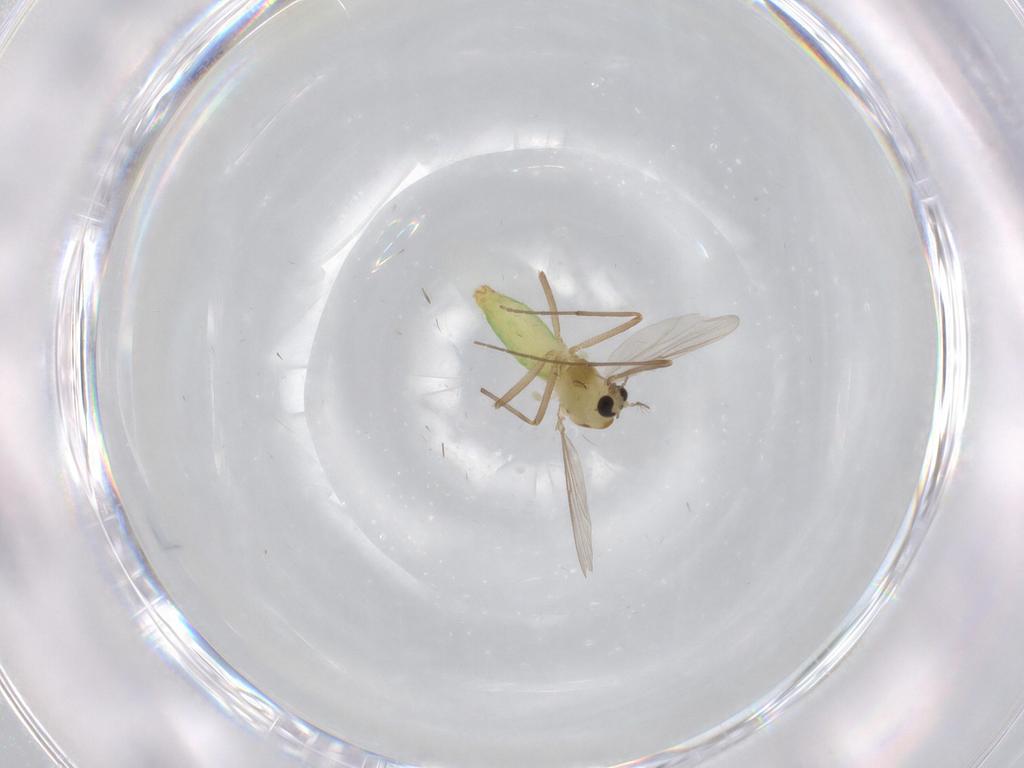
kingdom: Animalia
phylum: Arthropoda
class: Insecta
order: Diptera
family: Chironomidae
